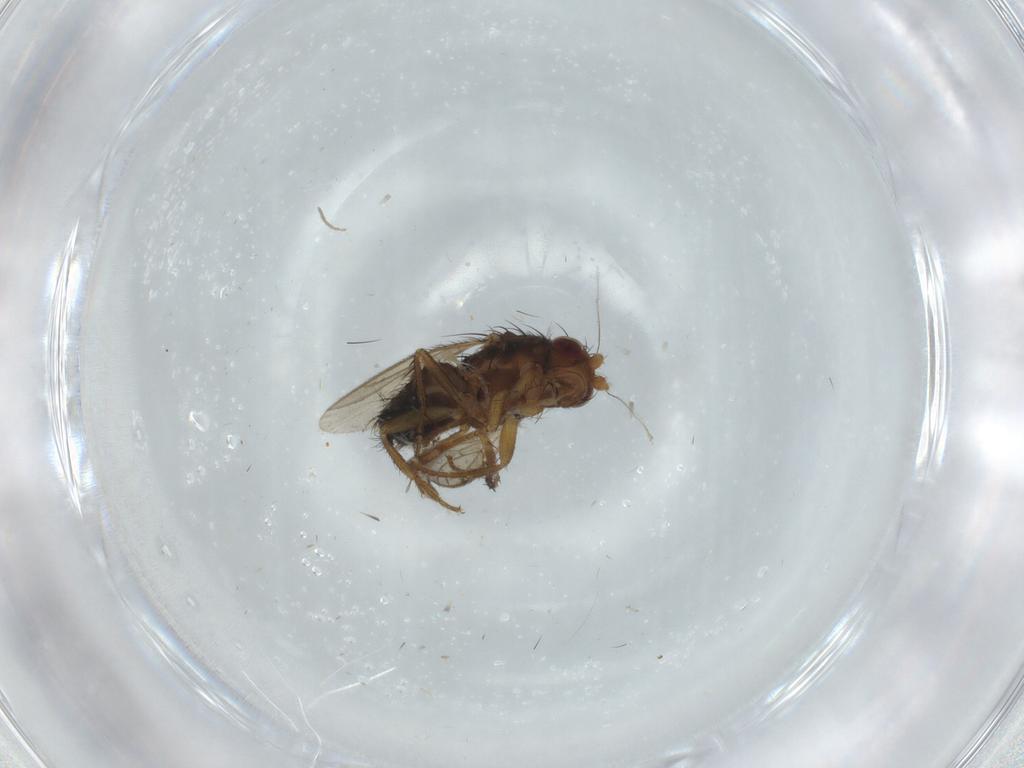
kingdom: Animalia
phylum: Arthropoda
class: Insecta
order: Diptera
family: Sphaeroceridae
